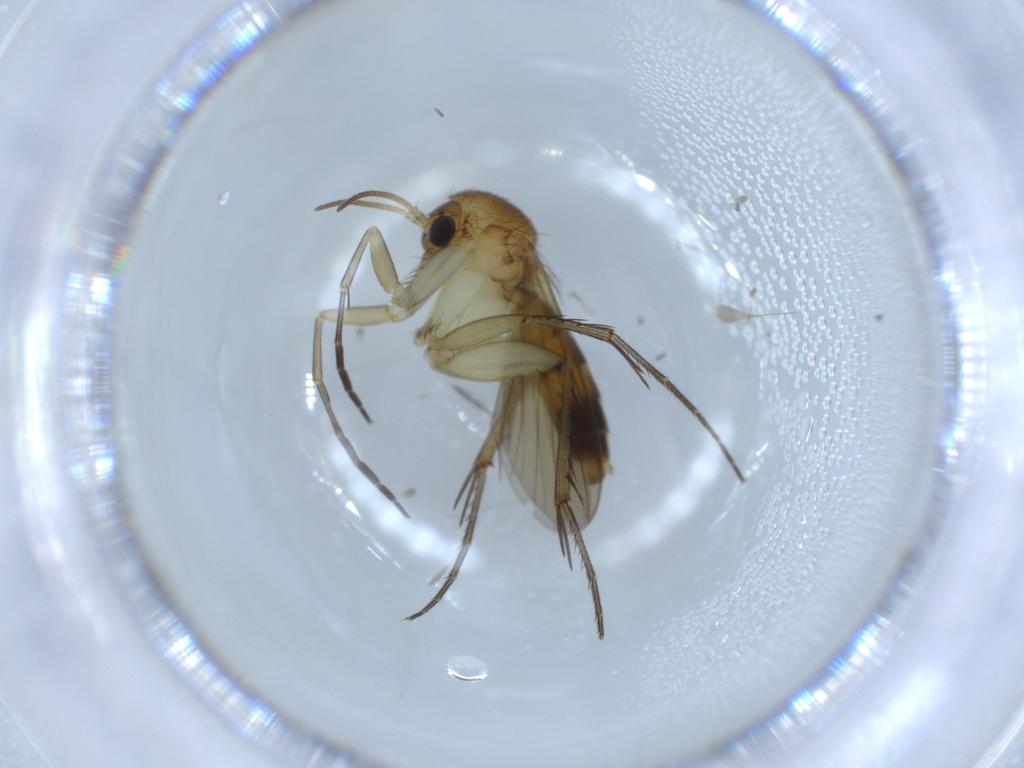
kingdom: Animalia
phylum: Arthropoda
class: Insecta
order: Diptera
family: Mycetophilidae
